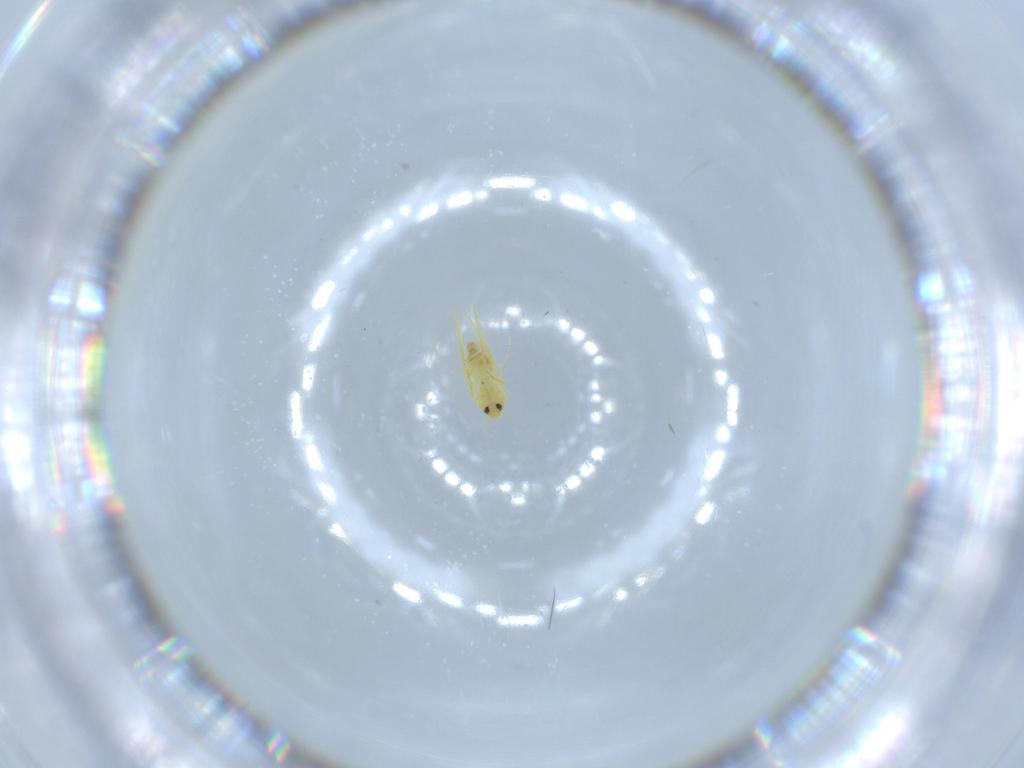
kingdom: Animalia
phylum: Arthropoda
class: Insecta
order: Hemiptera
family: Aleyrodidae
